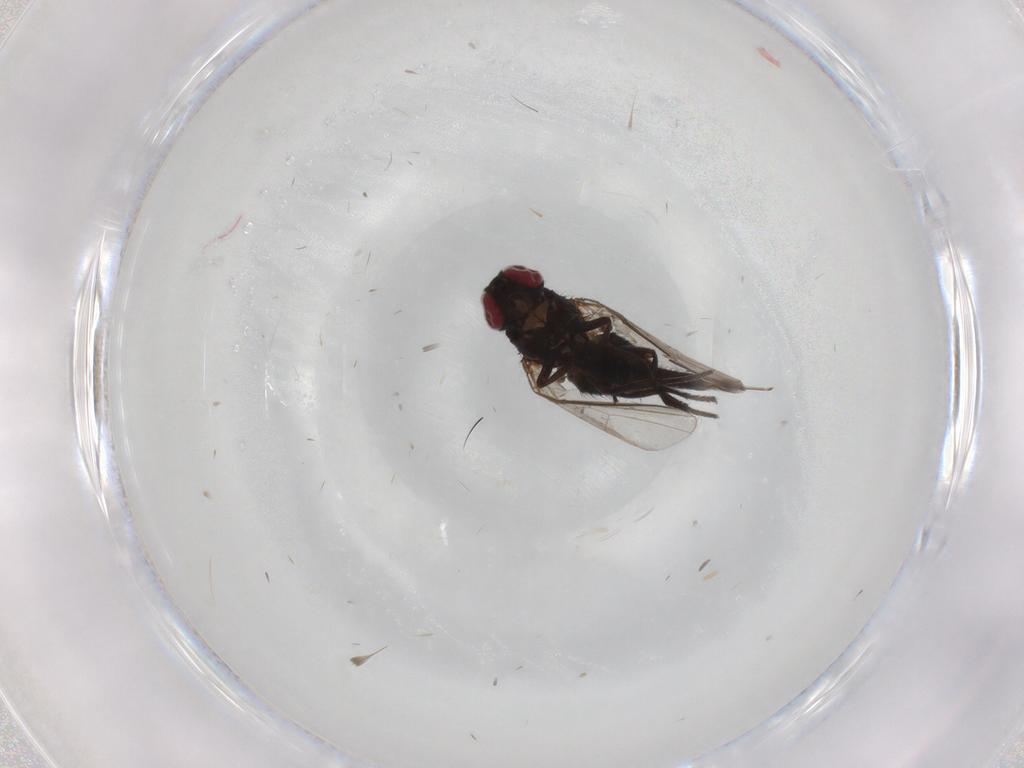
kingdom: Animalia
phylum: Arthropoda
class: Insecta
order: Diptera
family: Agromyzidae
